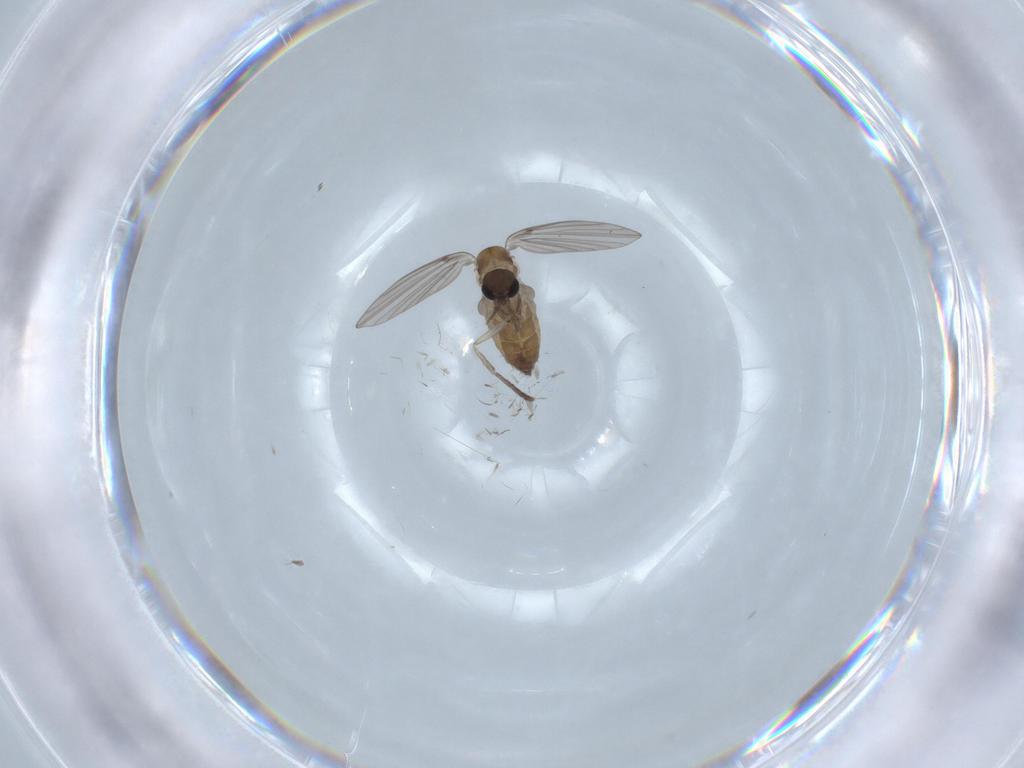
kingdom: Animalia
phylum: Arthropoda
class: Insecta
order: Diptera
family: Psychodidae
